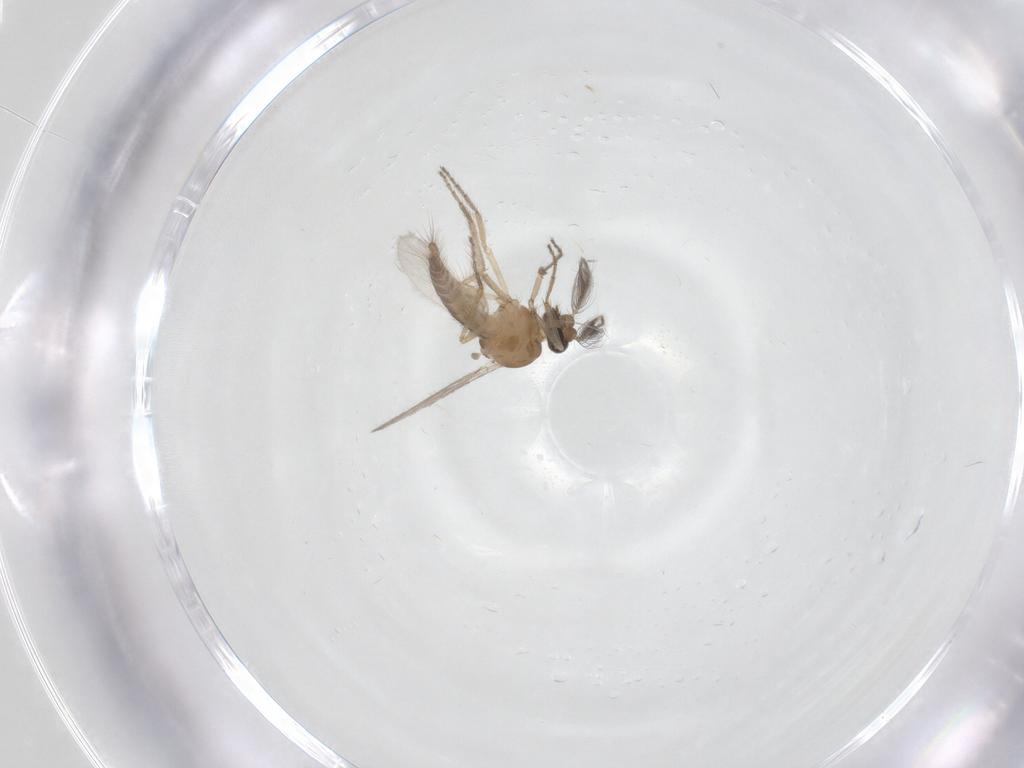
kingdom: Animalia
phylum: Arthropoda
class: Insecta
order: Diptera
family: Ceratopogonidae
